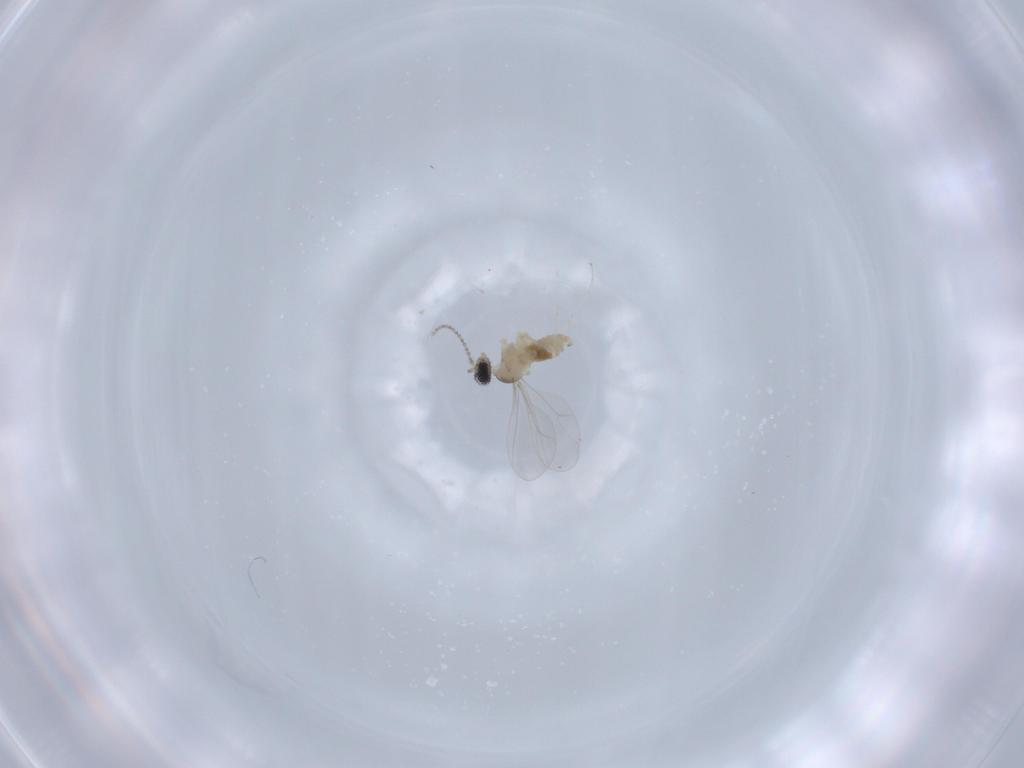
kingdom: Animalia
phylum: Arthropoda
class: Insecta
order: Diptera
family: Cecidomyiidae
